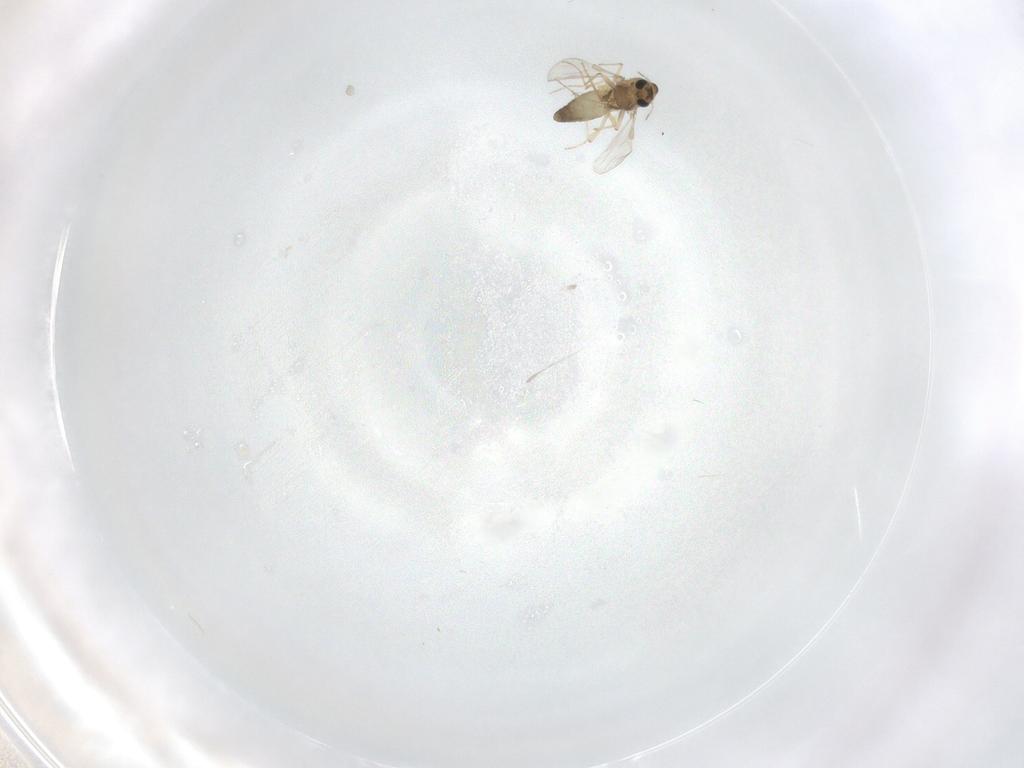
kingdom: Animalia
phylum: Arthropoda
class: Insecta
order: Diptera
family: Chironomidae
